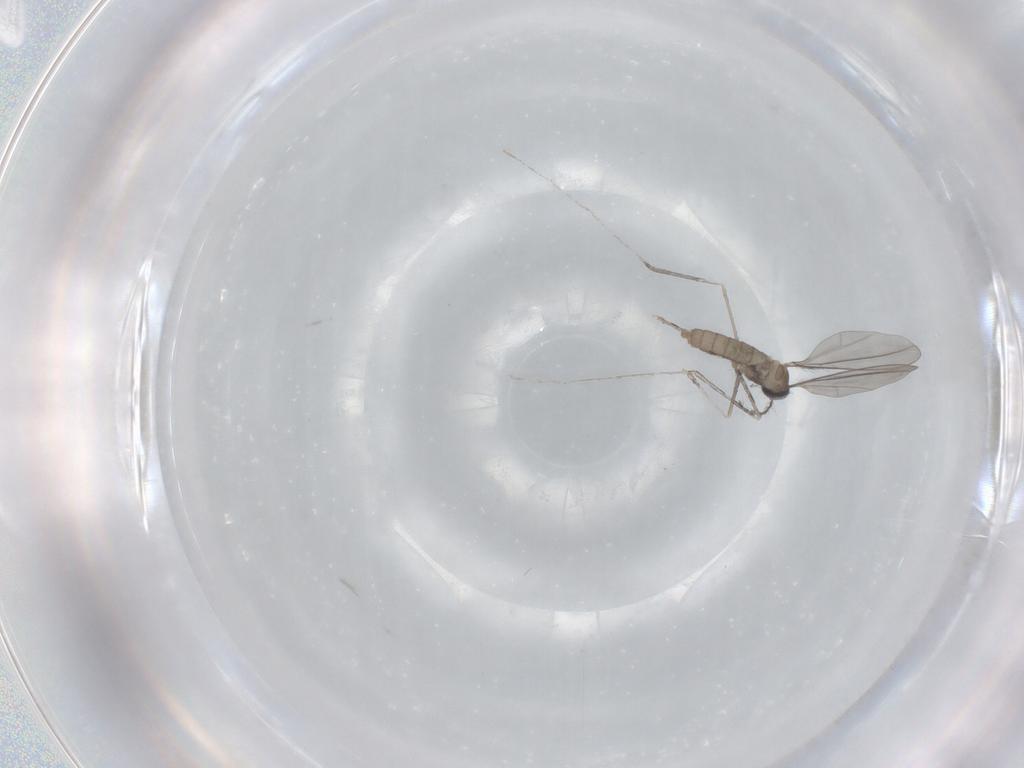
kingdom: Animalia
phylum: Arthropoda
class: Insecta
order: Diptera
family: Cecidomyiidae
